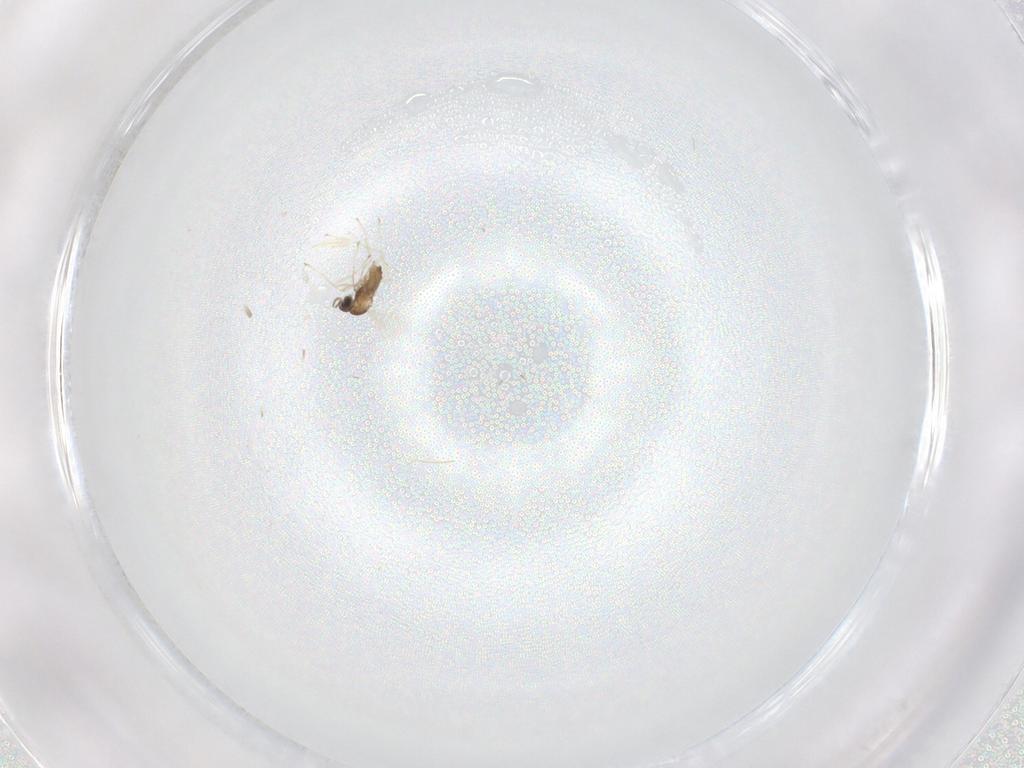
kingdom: Animalia
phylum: Arthropoda
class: Insecta
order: Diptera
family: Cecidomyiidae
